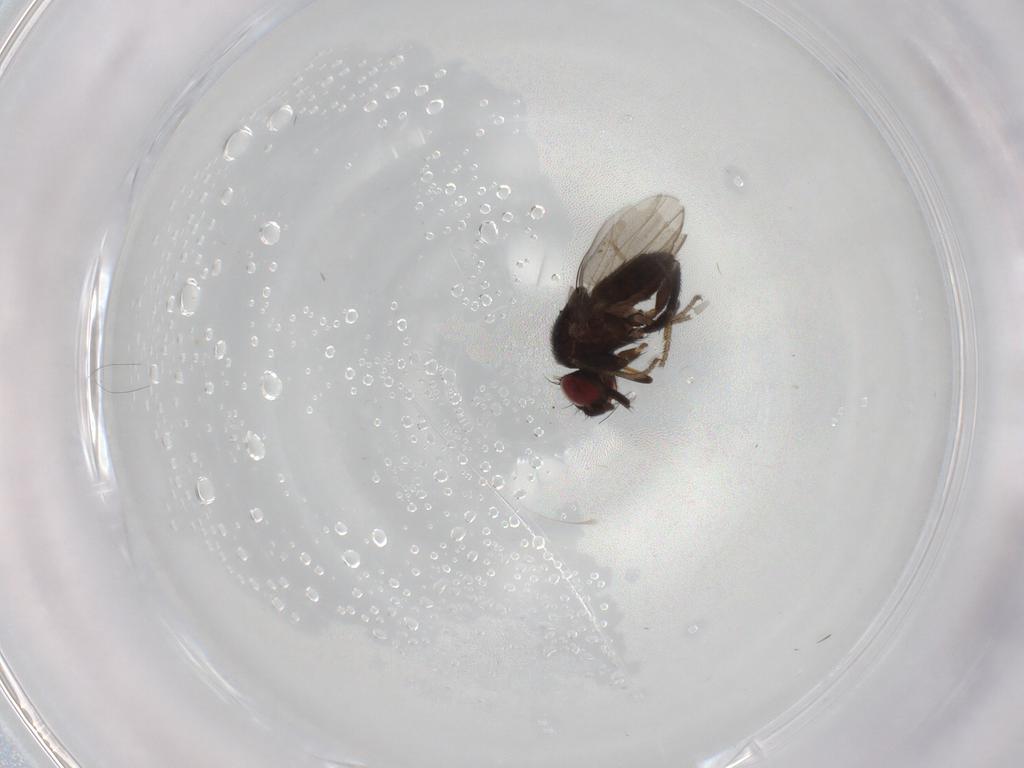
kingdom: Animalia
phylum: Arthropoda
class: Insecta
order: Diptera
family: Milichiidae
